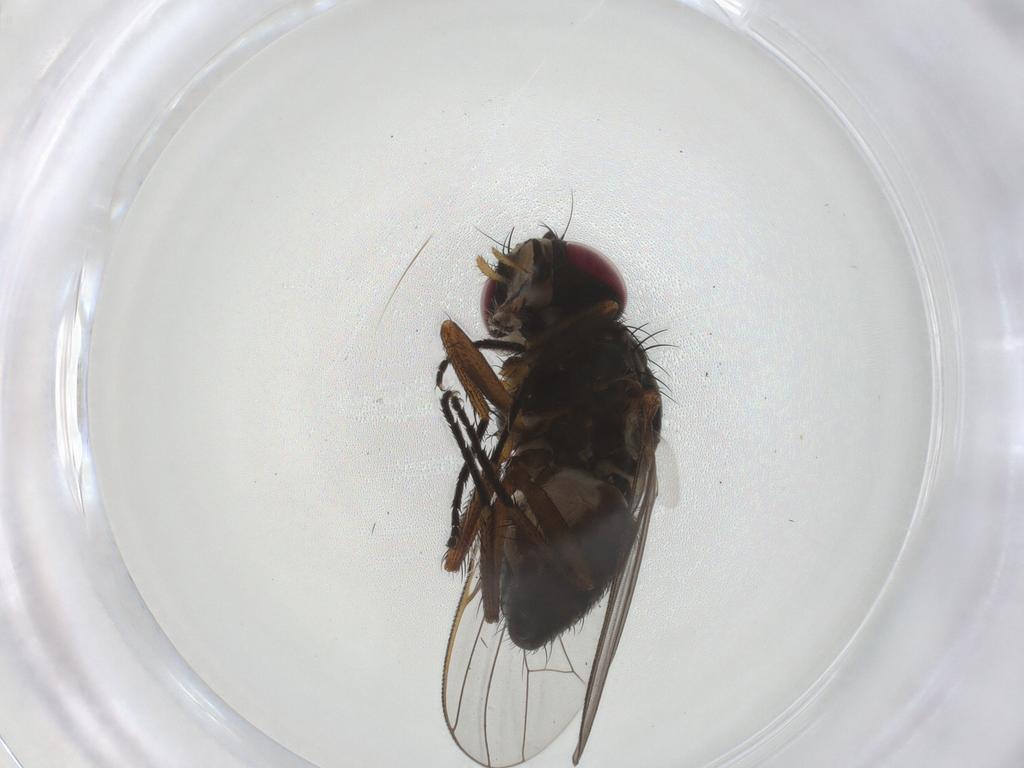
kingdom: Animalia
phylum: Arthropoda
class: Insecta
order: Diptera
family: Fannia
